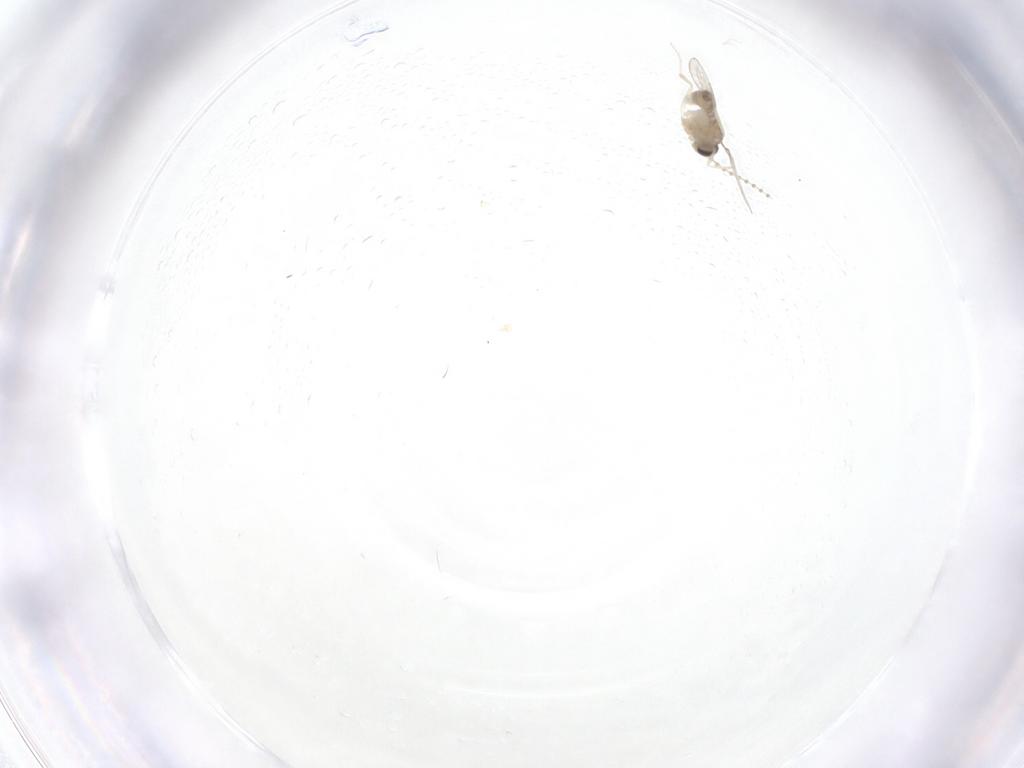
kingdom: Animalia
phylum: Arthropoda
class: Insecta
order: Diptera
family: Cecidomyiidae
